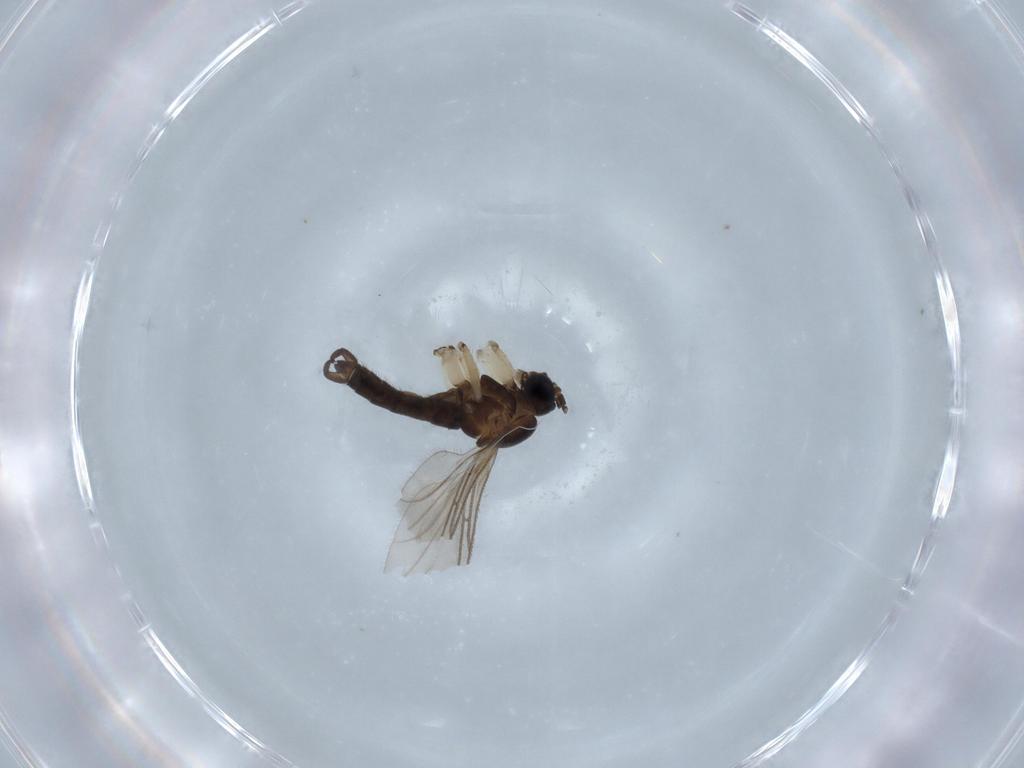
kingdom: Animalia
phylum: Arthropoda
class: Insecta
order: Diptera
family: Sciaridae
